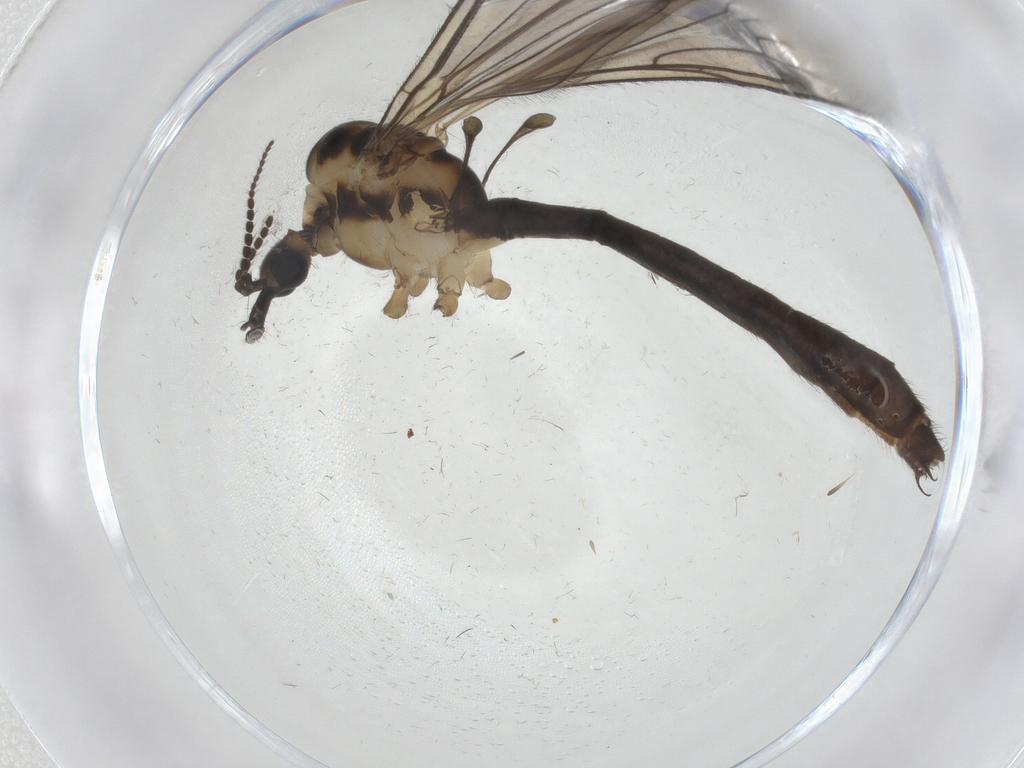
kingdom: Animalia
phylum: Arthropoda
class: Insecta
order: Diptera
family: Limoniidae
